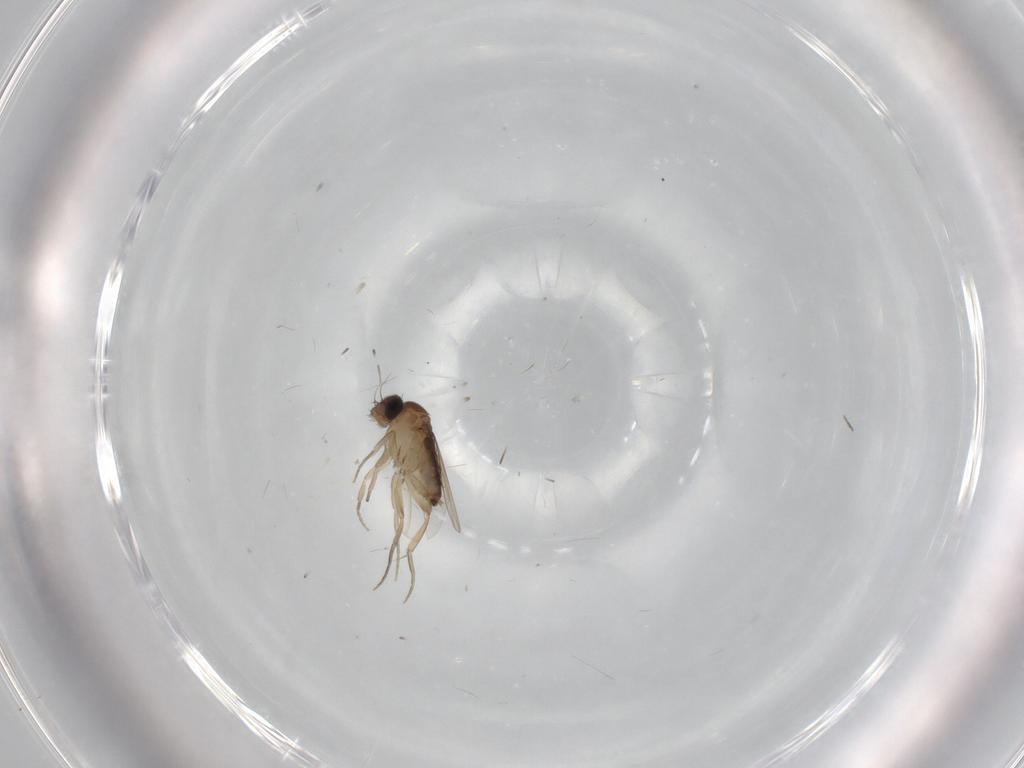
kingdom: Animalia
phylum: Arthropoda
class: Insecta
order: Diptera
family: Phoridae
